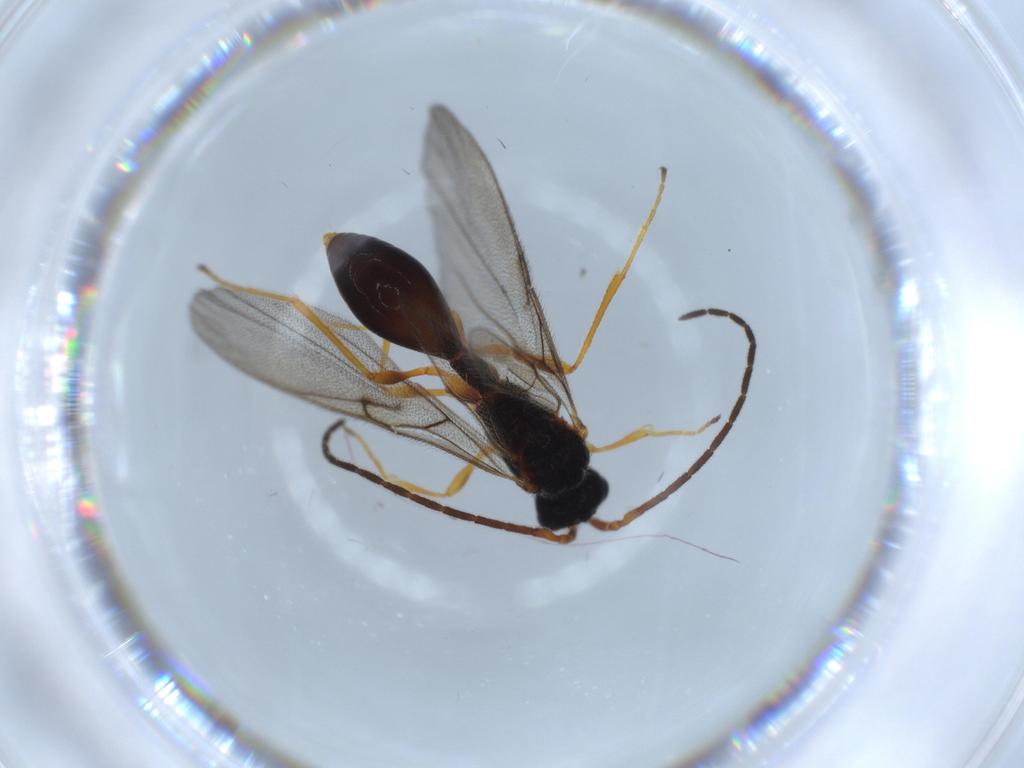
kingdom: Animalia
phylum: Arthropoda
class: Insecta
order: Hymenoptera
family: Diapriidae
